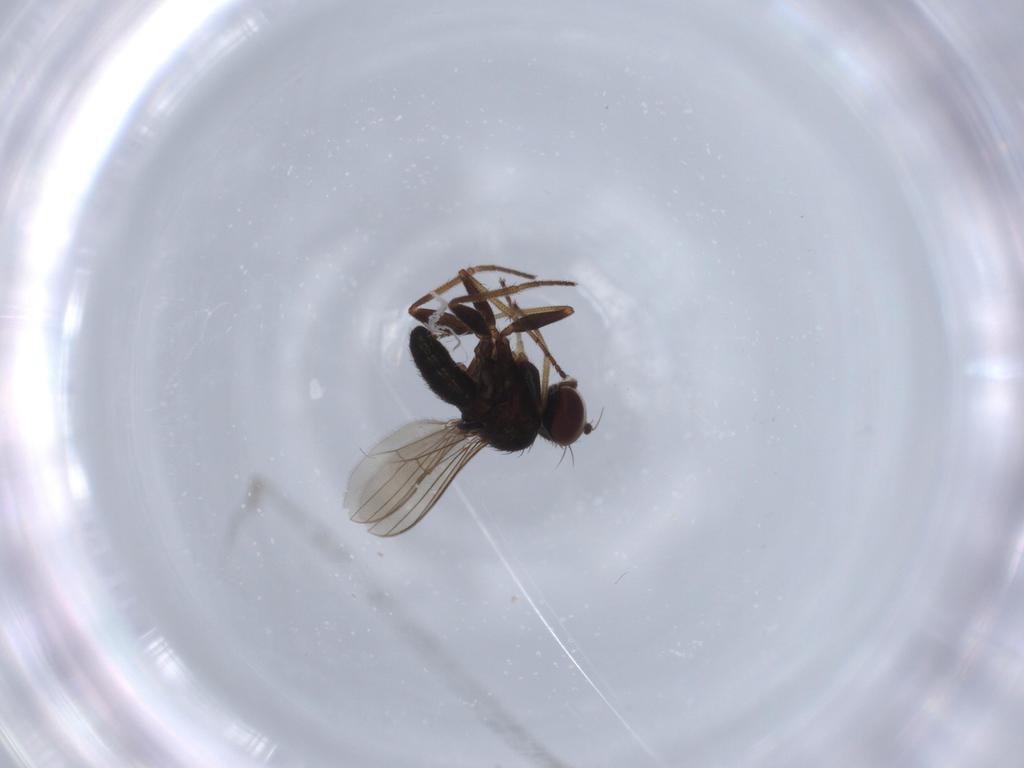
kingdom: Animalia
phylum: Arthropoda
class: Insecta
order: Diptera
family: Dolichopodidae
